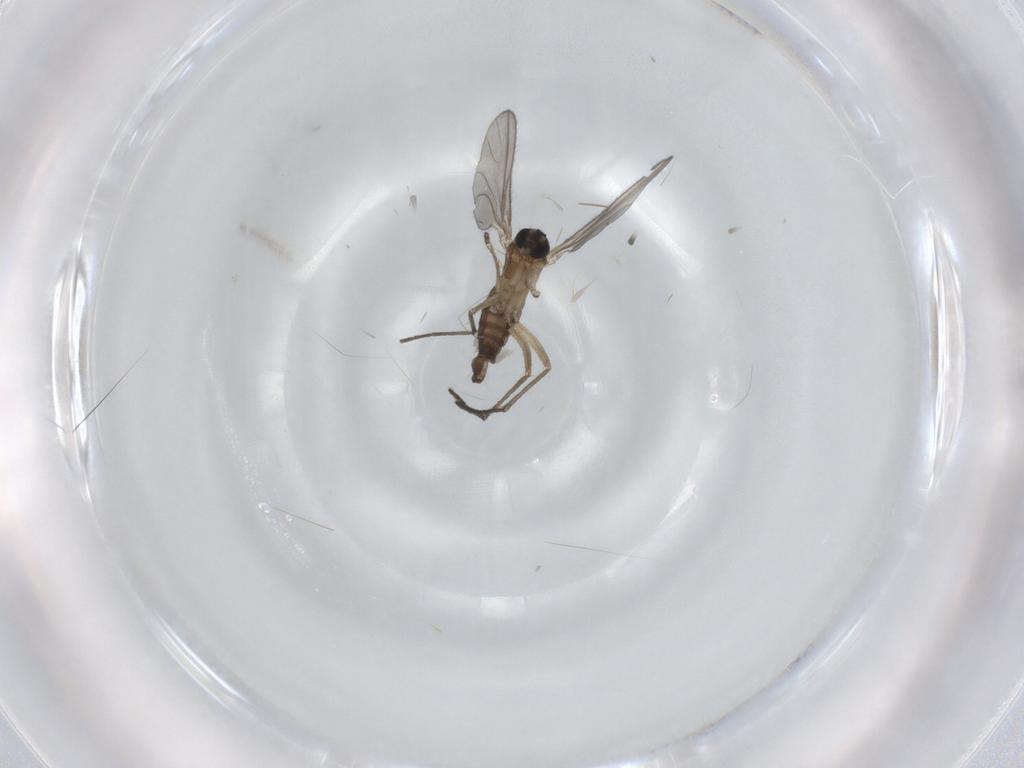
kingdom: Animalia
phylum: Arthropoda
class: Insecta
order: Diptera
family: Sciaridae
